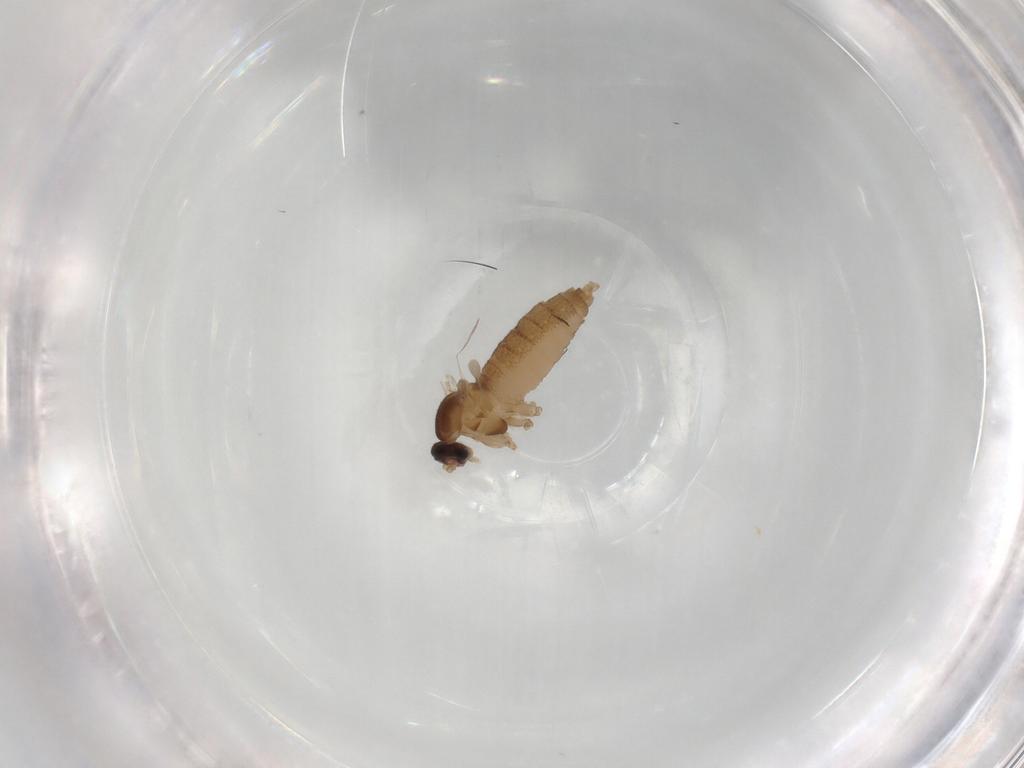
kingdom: Animalia
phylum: Arthropoda
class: Insecta
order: Diptera
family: Cecidomyiidae
